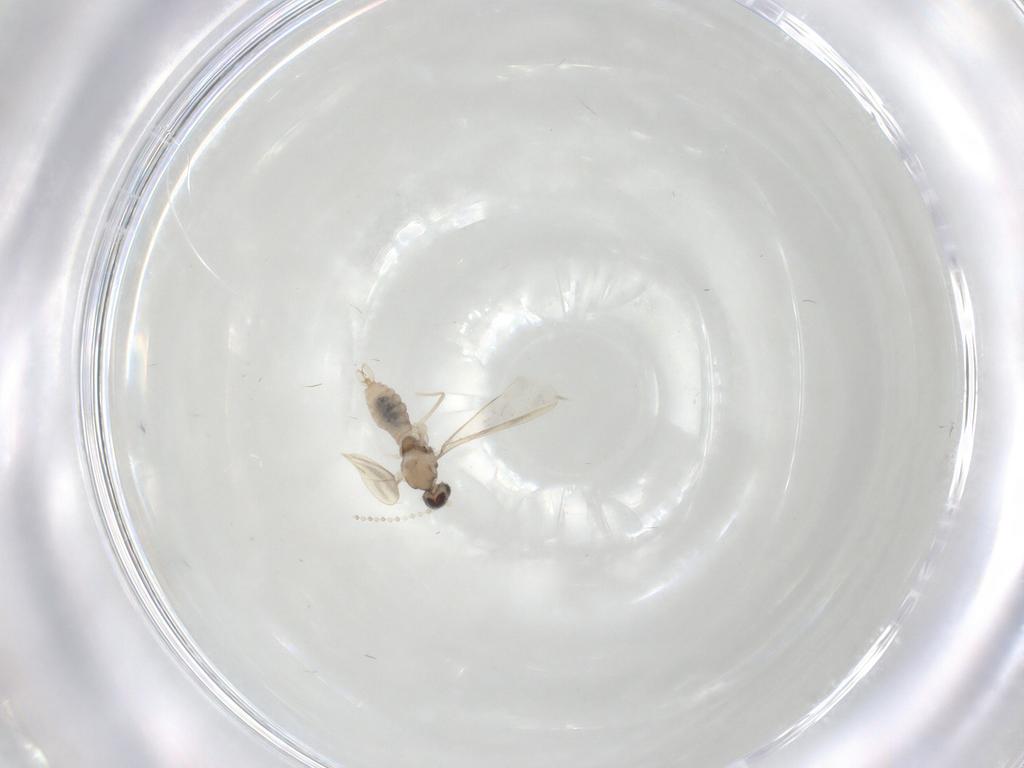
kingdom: Animalia
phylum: Arthropoda
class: Insecta
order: Diptera
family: Cecidomyiidae
